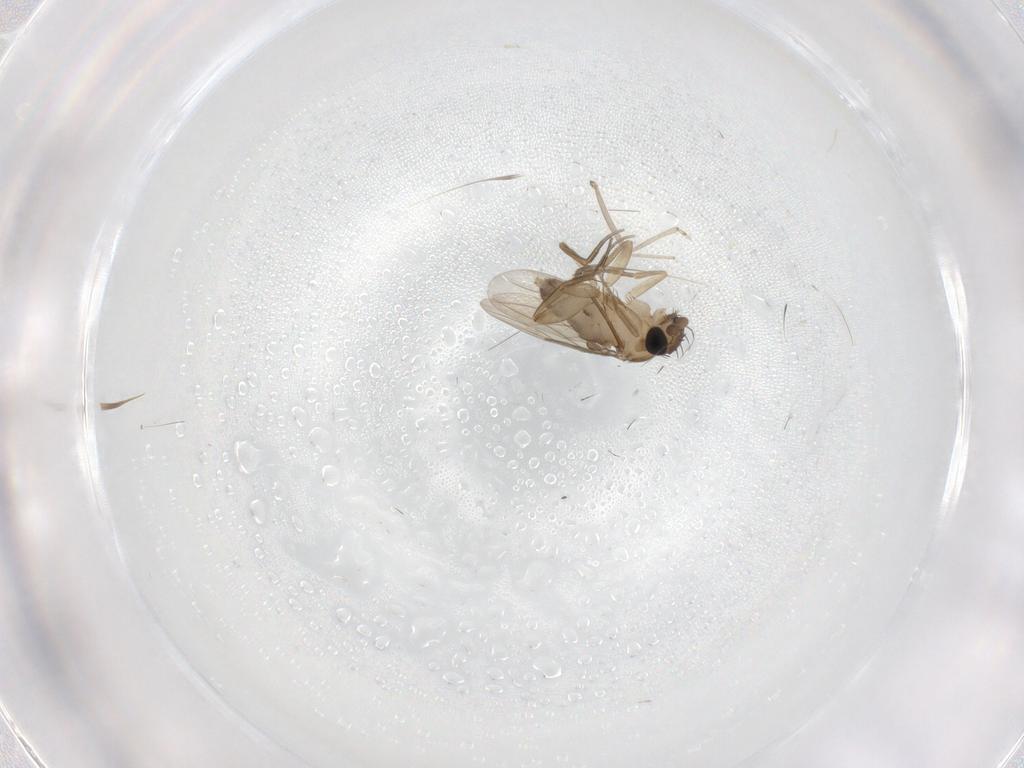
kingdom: Animalia
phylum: Arthropoda
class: Insecta
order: Diptera
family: Cecidomyiidae
